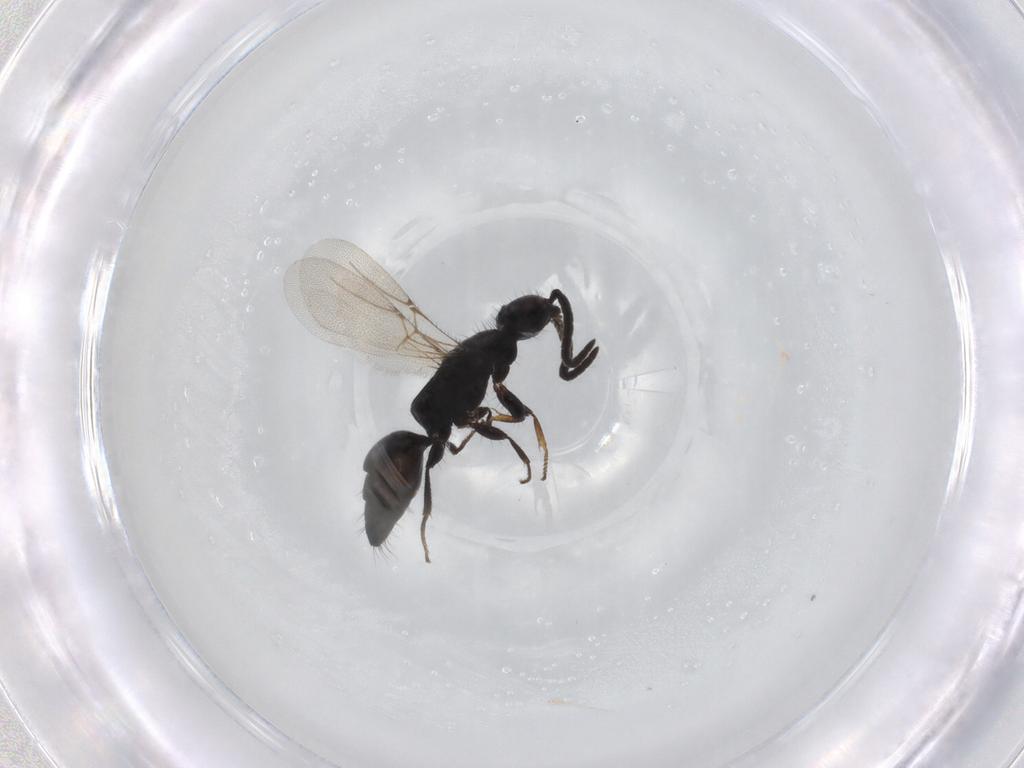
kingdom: Animalia
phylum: Arthropoda
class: Insecta
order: Hymenoptera
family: Bethylidae
